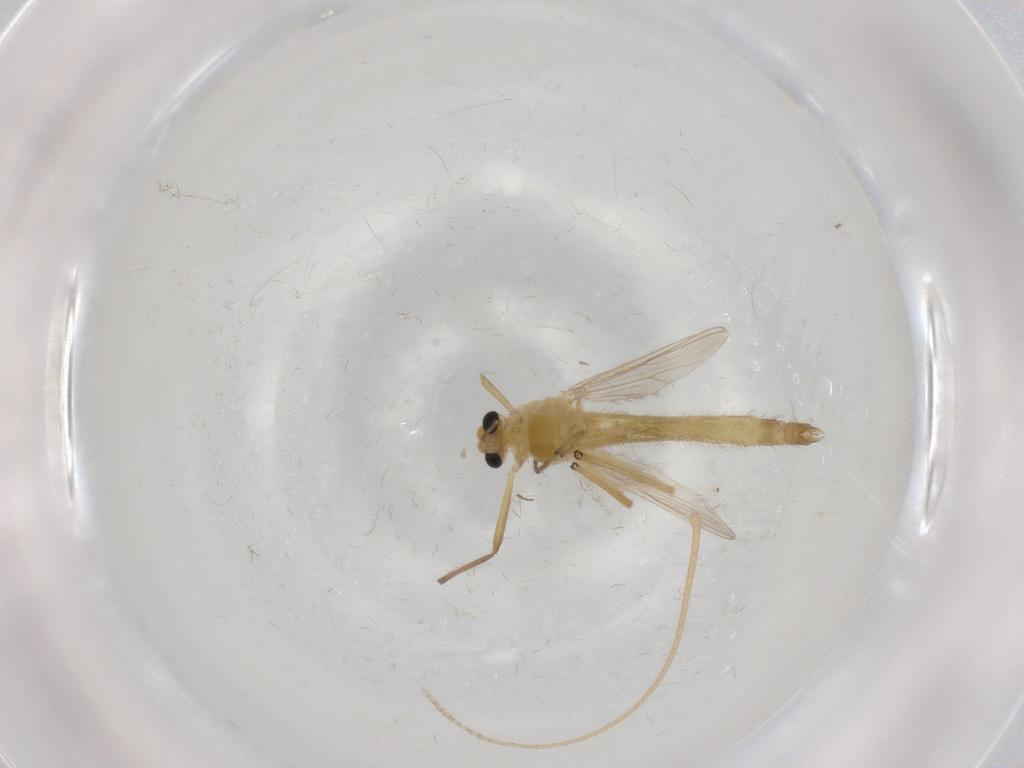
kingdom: Animalia
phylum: Arthropoda
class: Insecta
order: Diptera
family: Chironomidae
